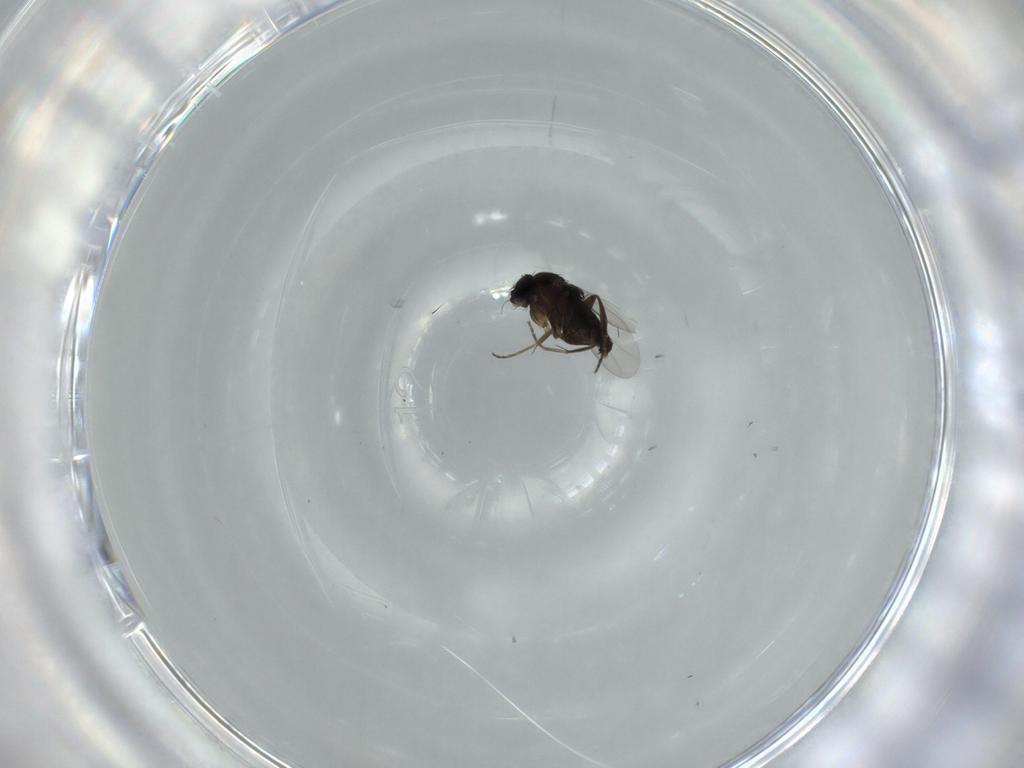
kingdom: Animalia
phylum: Arthropoda
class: Insecta
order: Diptera
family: Phoridae
